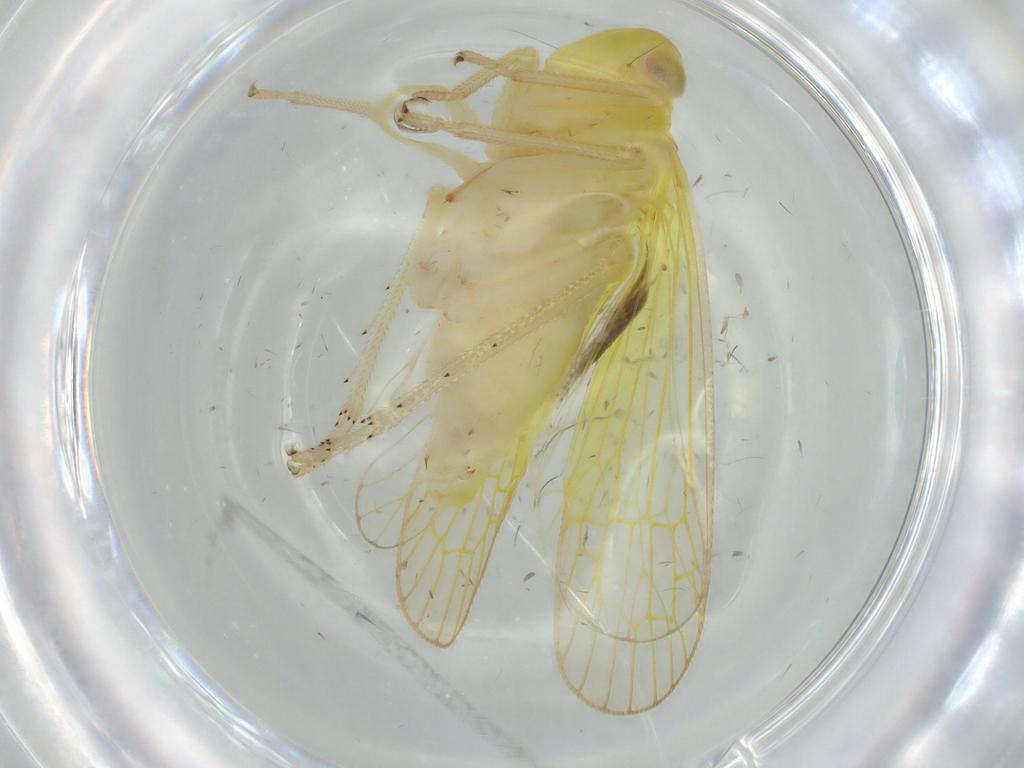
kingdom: Animalia
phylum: Arthropoda
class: Insecta
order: Hemiptera
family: Tropiduchidae
